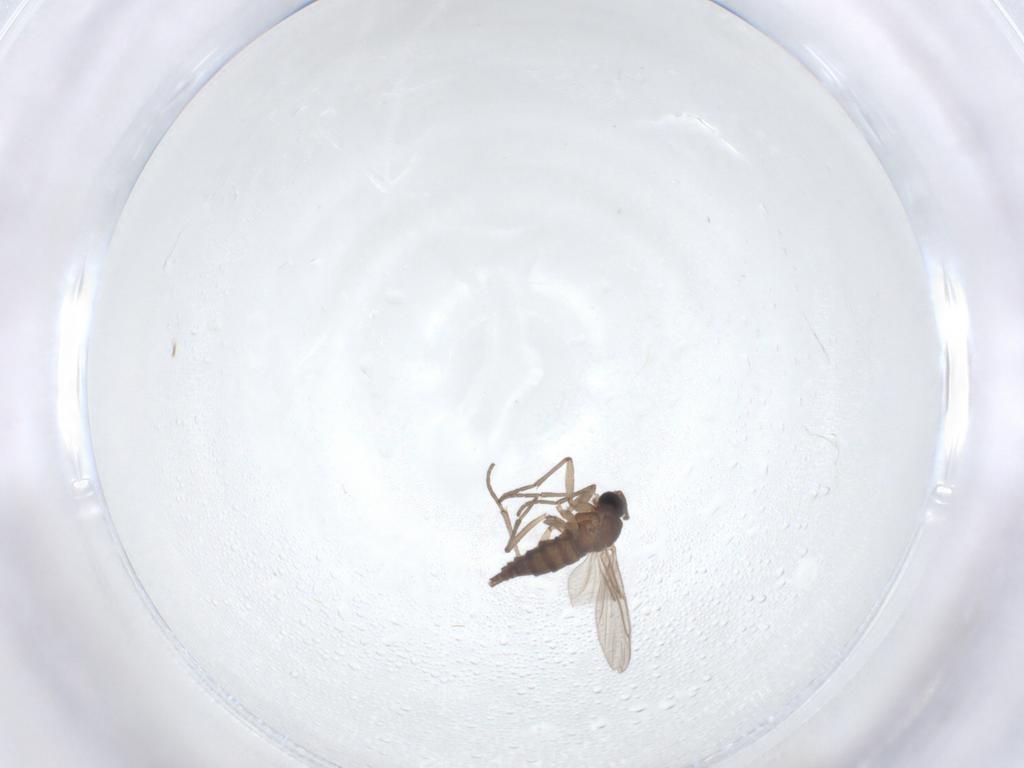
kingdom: Animalia
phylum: Arthropoda
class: Insecta
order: Diptera
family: Sciaridae
